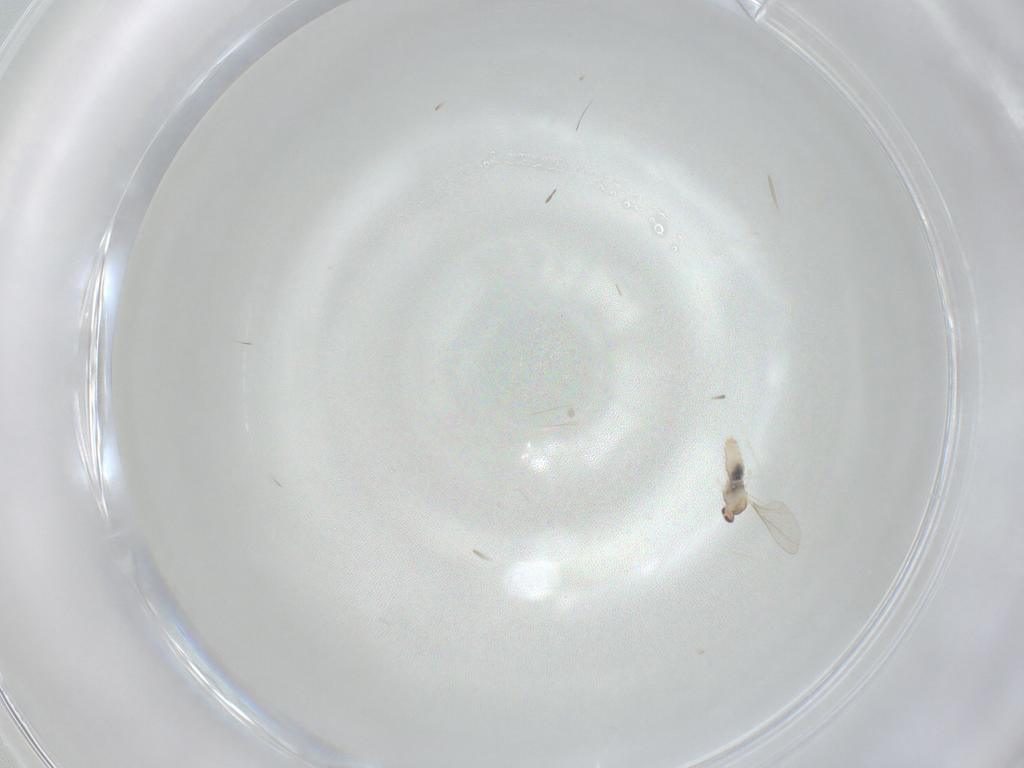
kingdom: Animalia
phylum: Arthropoda
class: Insecta
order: Diptera
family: Cecidomyiidae
